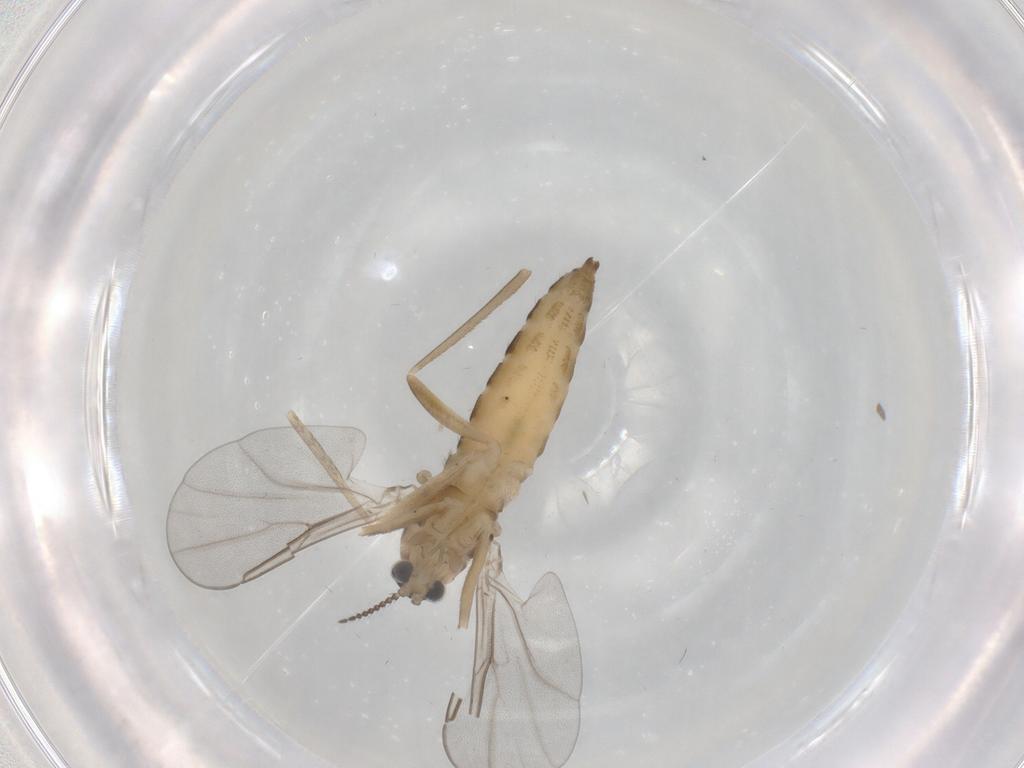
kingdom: Animalia
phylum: Arthropoda
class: Insecta
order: Diptera
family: Cecidomyiidae
